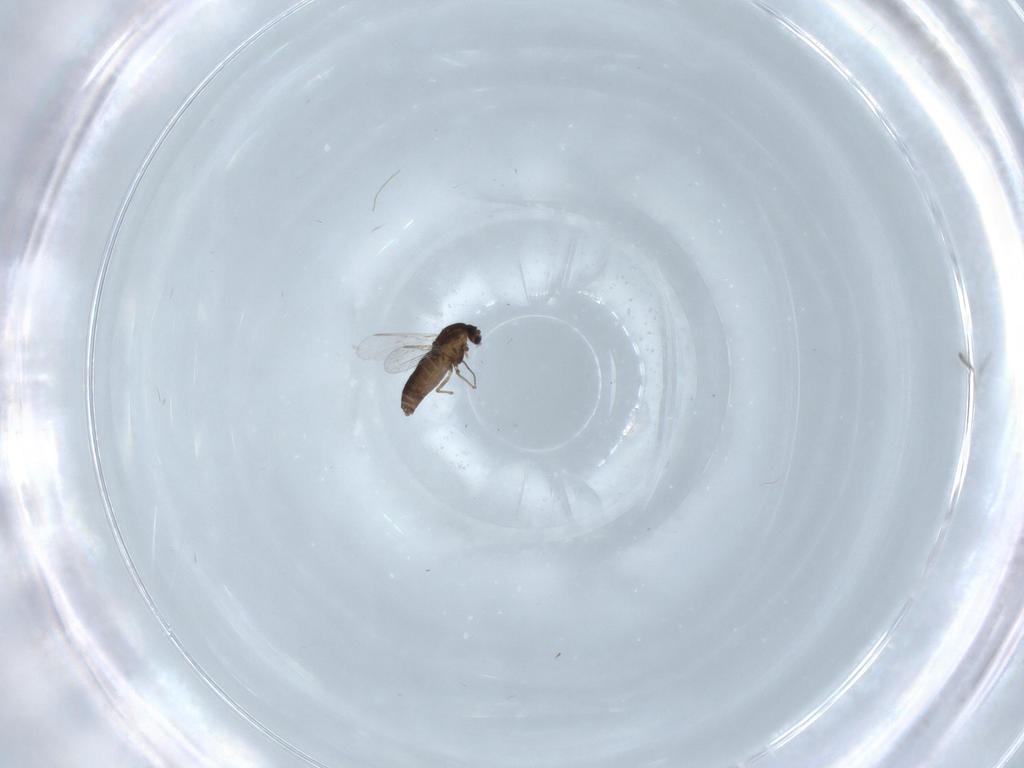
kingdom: Animalia
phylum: Arthropoda
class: Insecta
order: Diptera
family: Chironomidae
